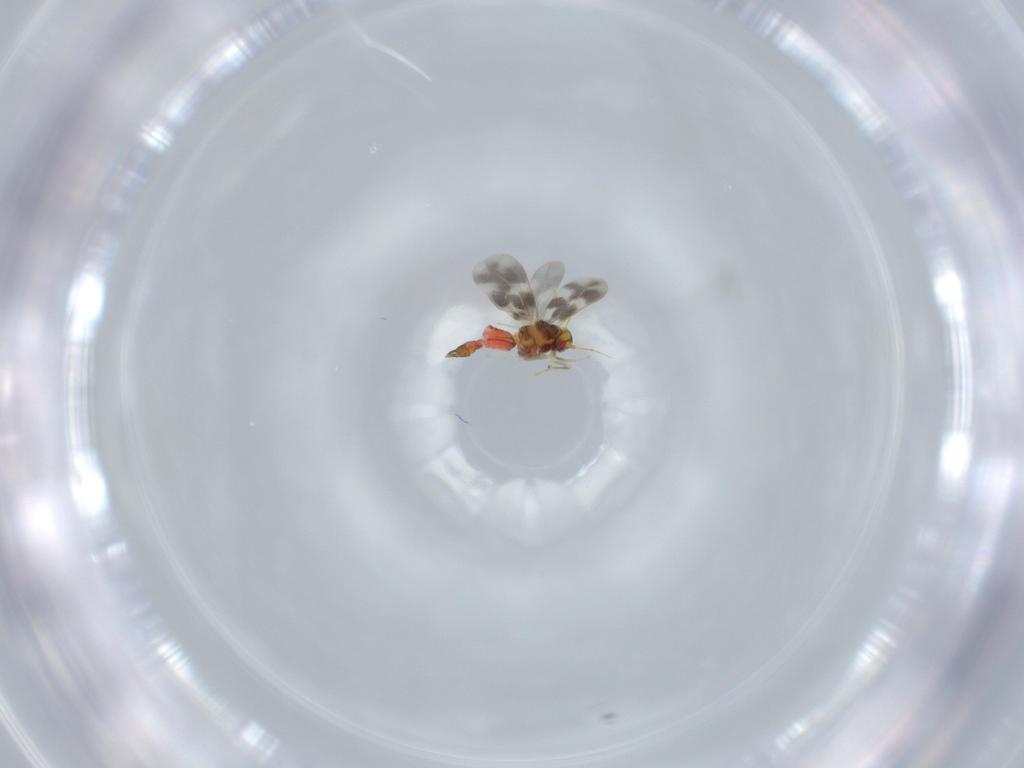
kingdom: Animalia
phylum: Arthropoda
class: Insecta
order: Hemiptera
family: Aleyrodidae
